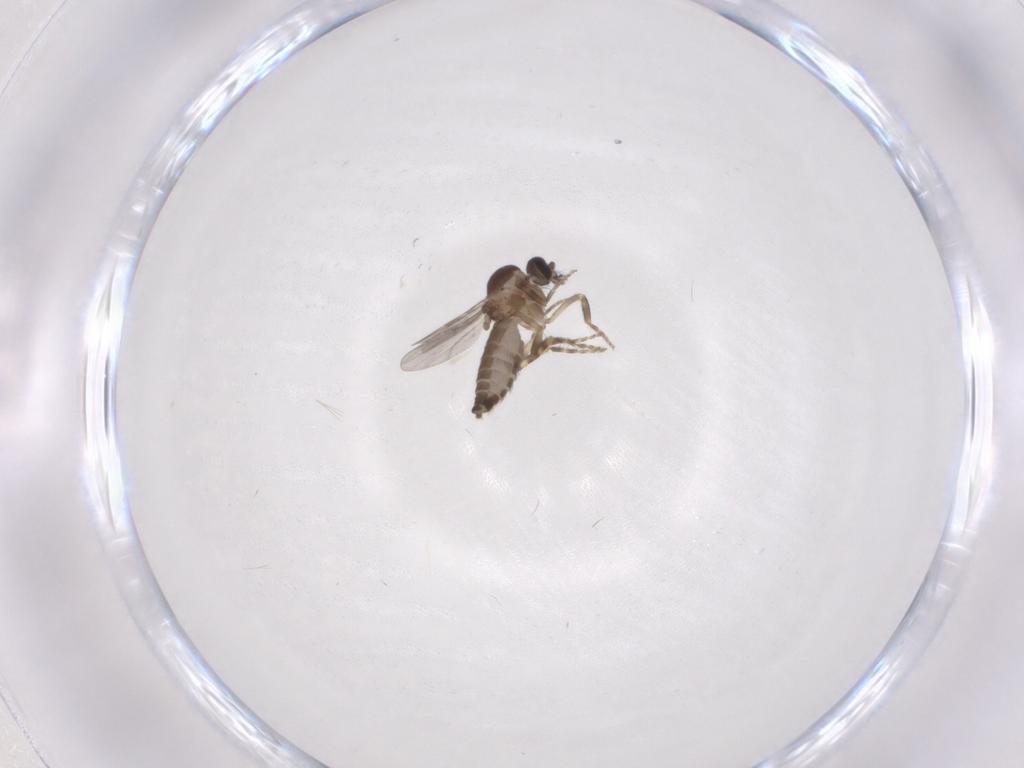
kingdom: Animalia
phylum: Arthropoda
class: Insecta
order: Diptera
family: Ceratopogonidae
